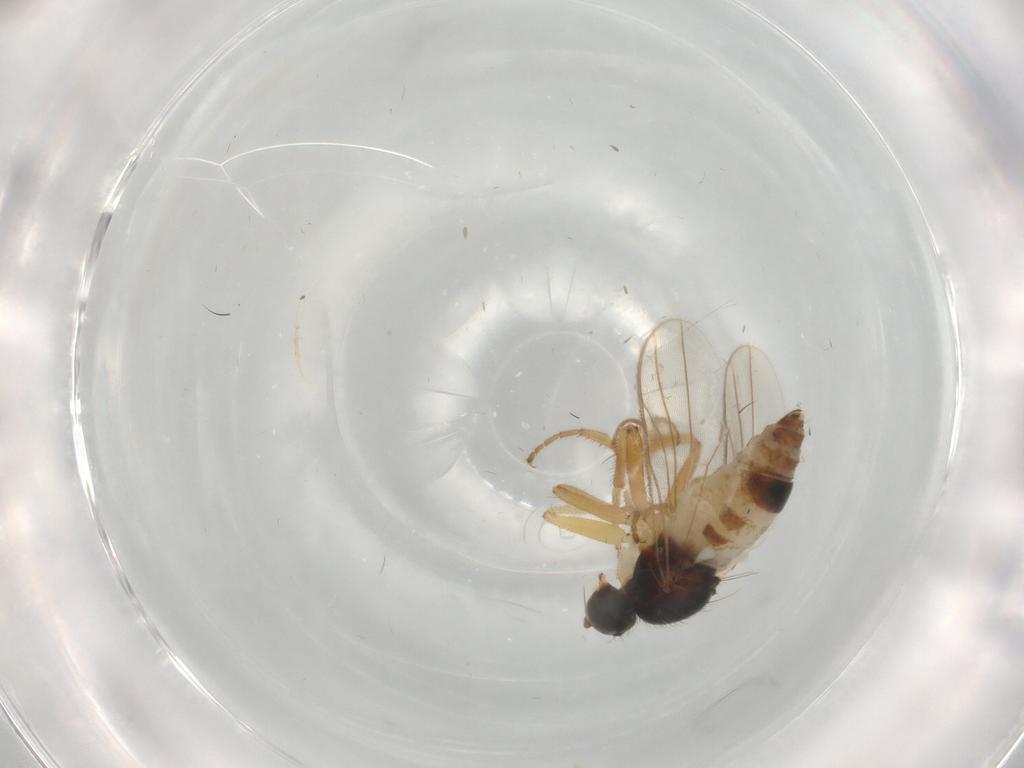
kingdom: Animalia
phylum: Arthropoda
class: Insecta
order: Diptera
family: Hybotidae
